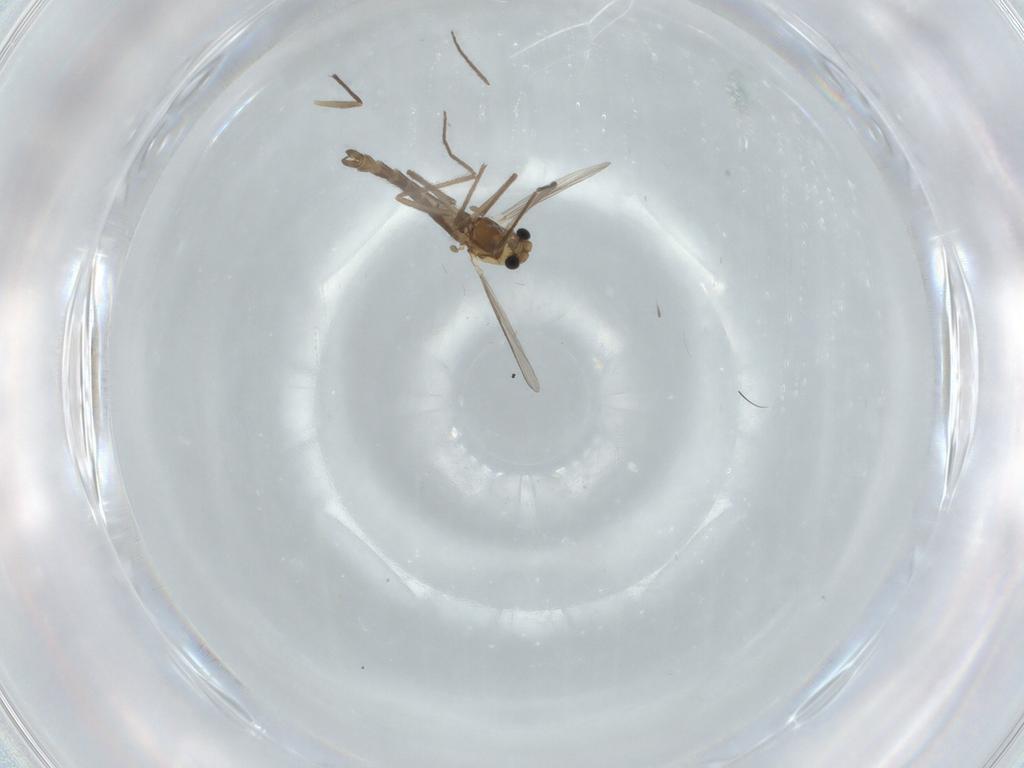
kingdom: Animalia
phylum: Arthropoda
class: Insecta
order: Diptera
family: Chironomidae
